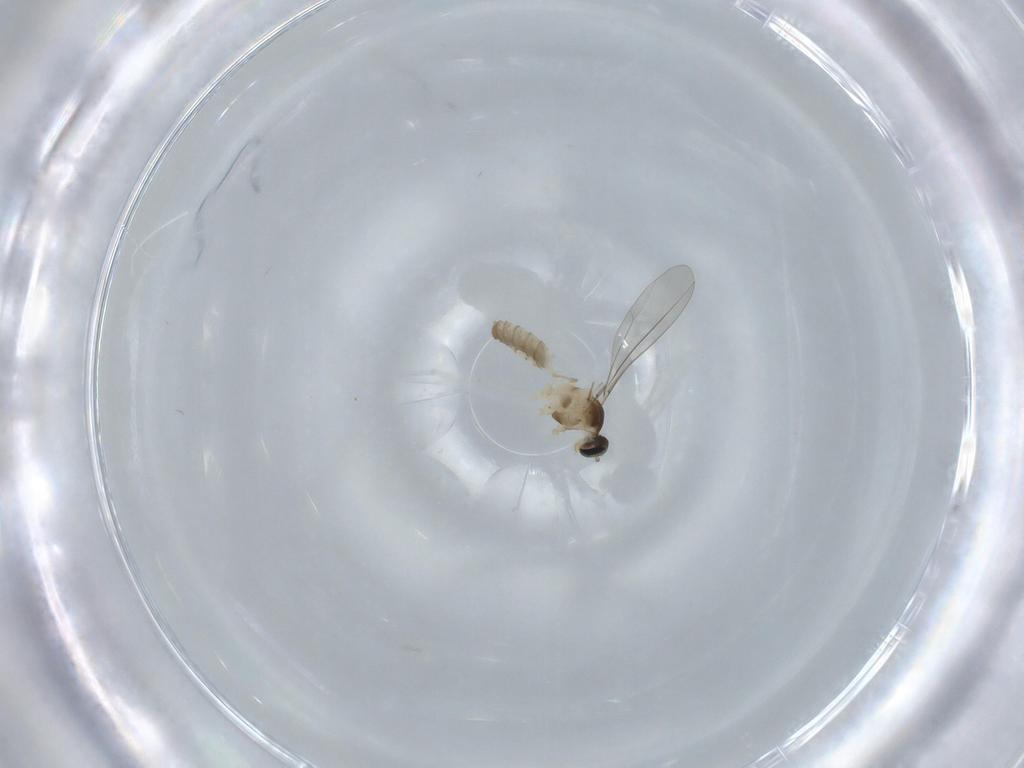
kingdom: Animalia
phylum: Arthropoda
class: Insecta
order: Diptera
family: Cecidomyiidae
